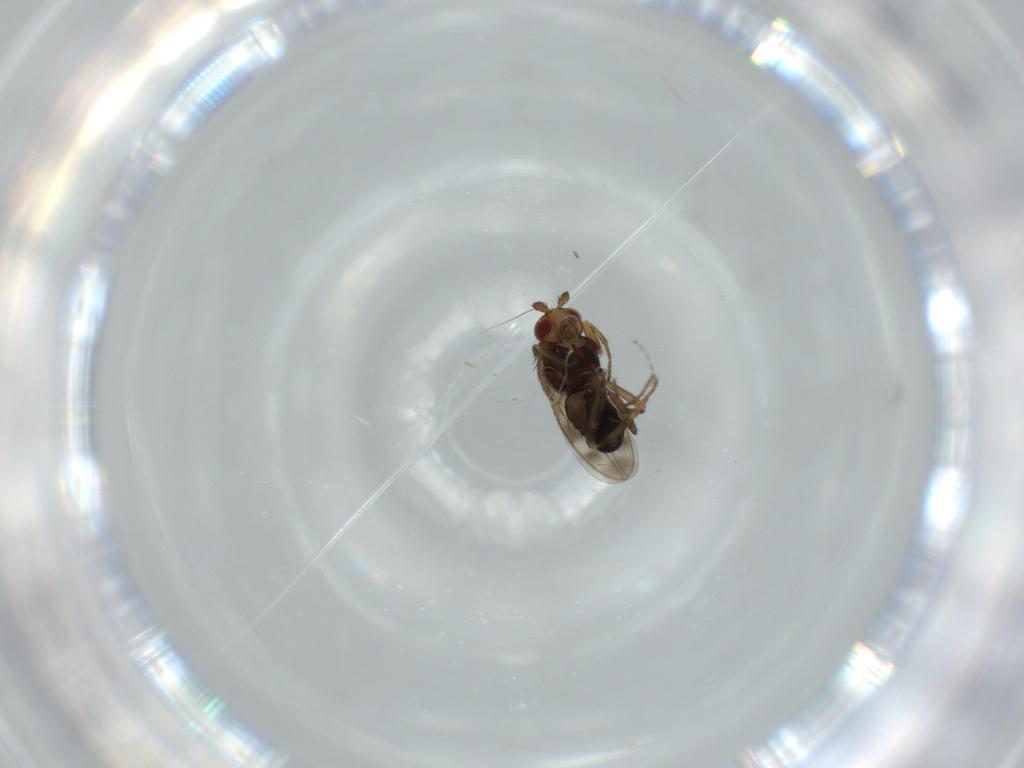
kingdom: Animalia
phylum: Arthropoda
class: Insecta
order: Diptera
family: Sphaeroceridae
